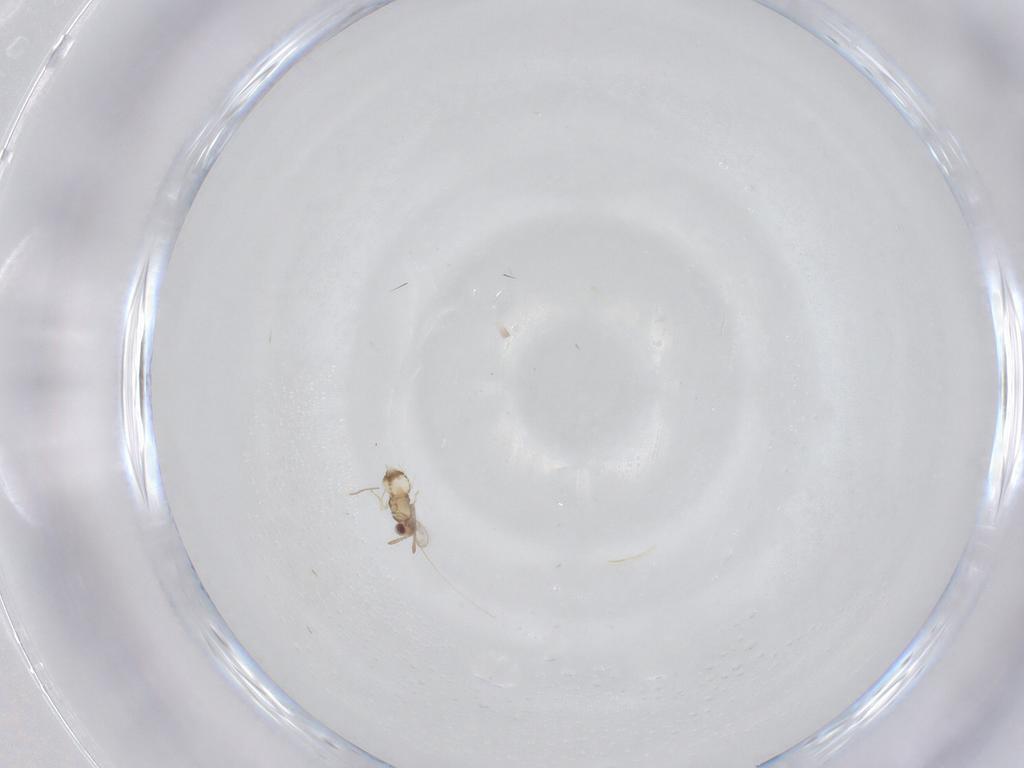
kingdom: Animalia
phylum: Arthropoda
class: Insecta
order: Hymenoptera
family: Aphelinidae
